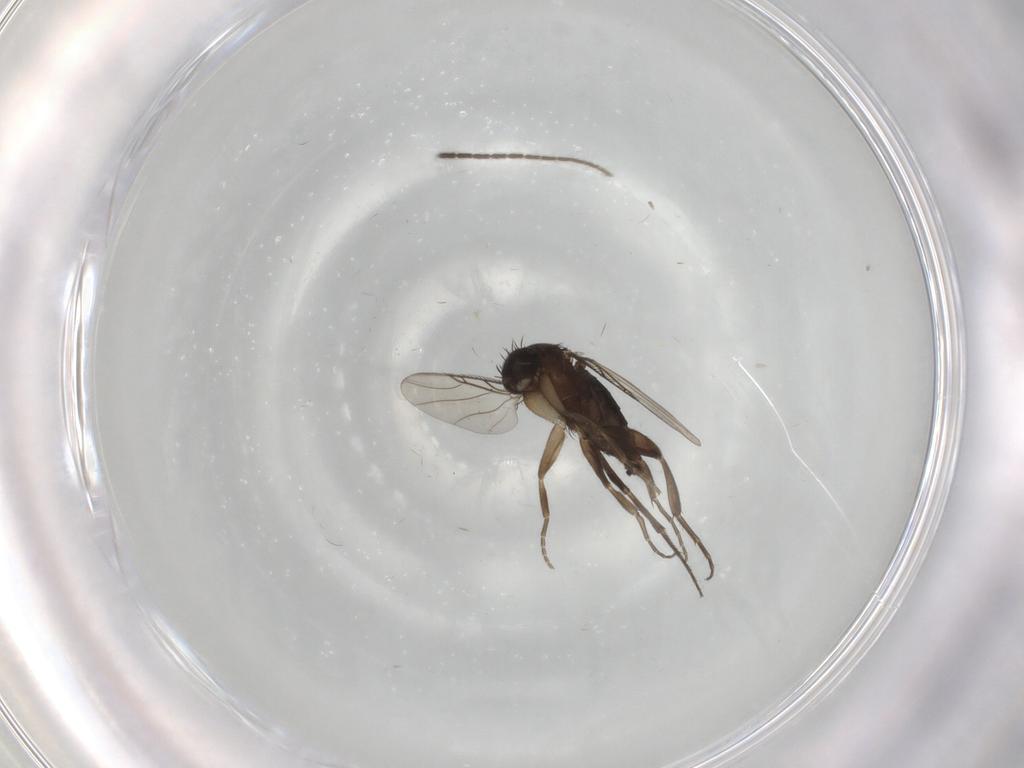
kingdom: Animalia
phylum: Arthropoda
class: Insecta
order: Diptera
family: Phoridae
